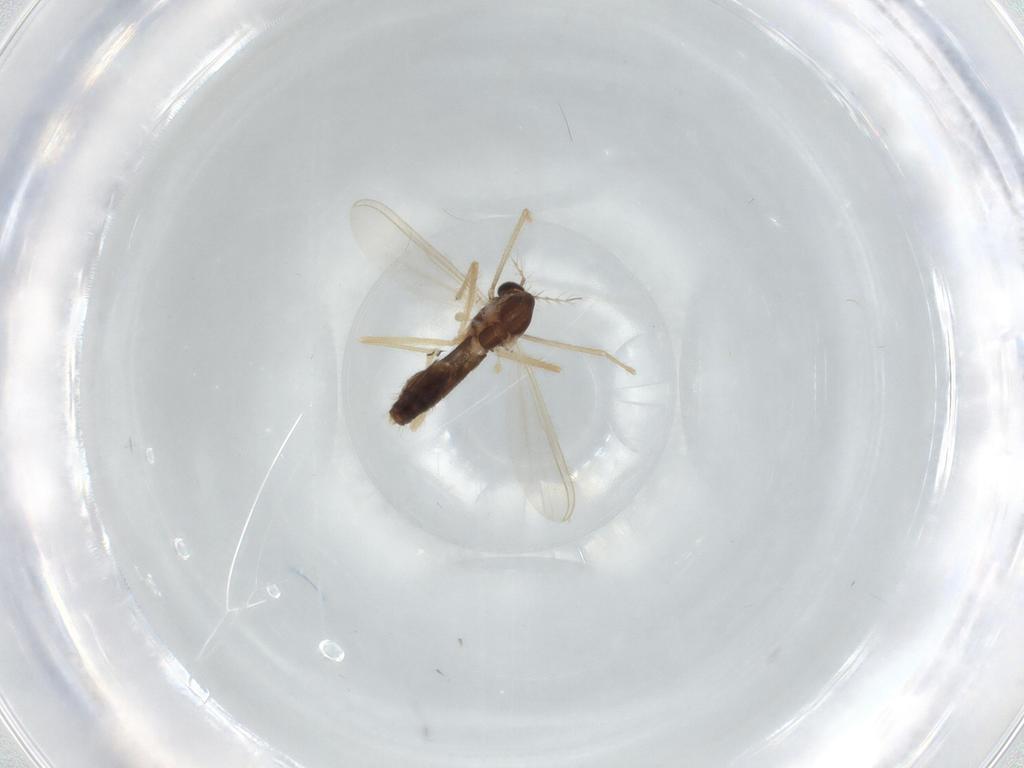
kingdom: Animalia
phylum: Arthropoda
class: Insecta
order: Diptera
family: Chironomidae
